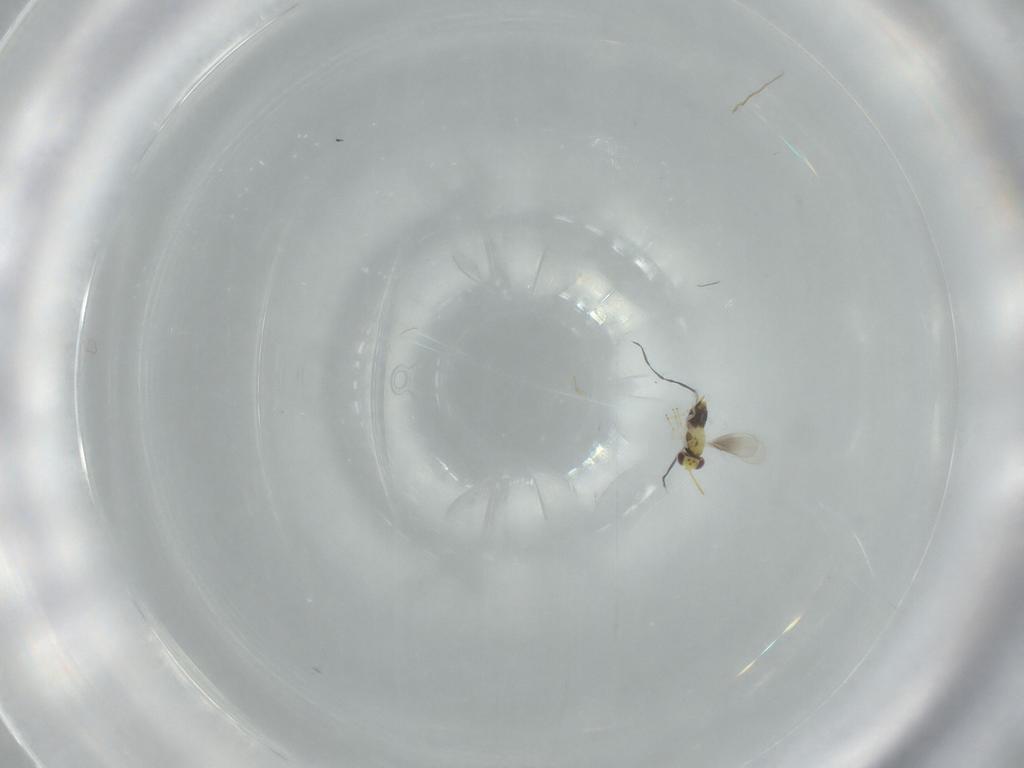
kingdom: Animalia
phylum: Arthropoda
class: Insecta
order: Hymenoptera
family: Aphelinidae
